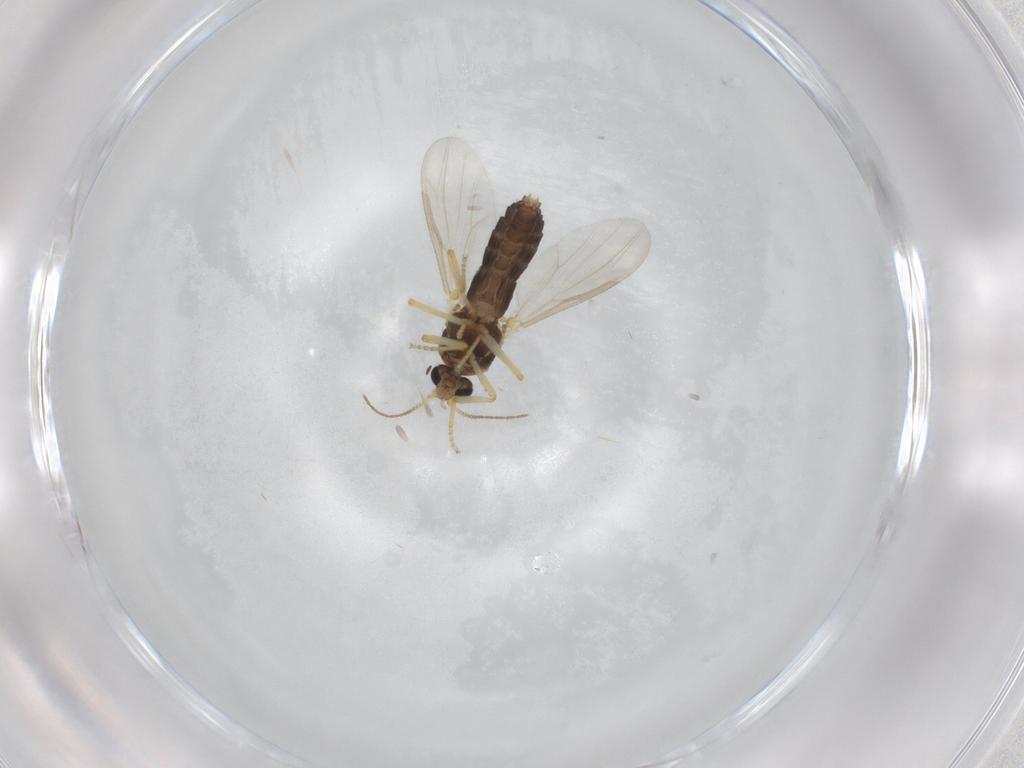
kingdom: Animalia
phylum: Arthropoda
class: Insecta
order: Diptera
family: Ceratopogonidae
